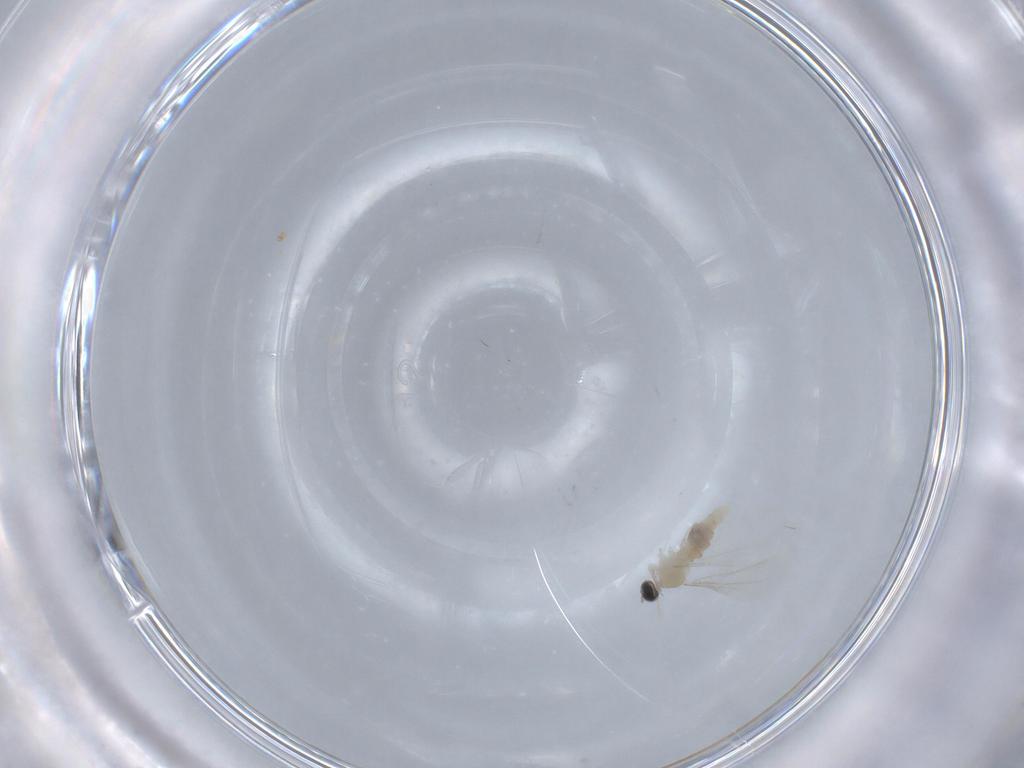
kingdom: Animalia
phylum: Arthropoda
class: Insecta
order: Diptera
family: Cecidomyiidae
